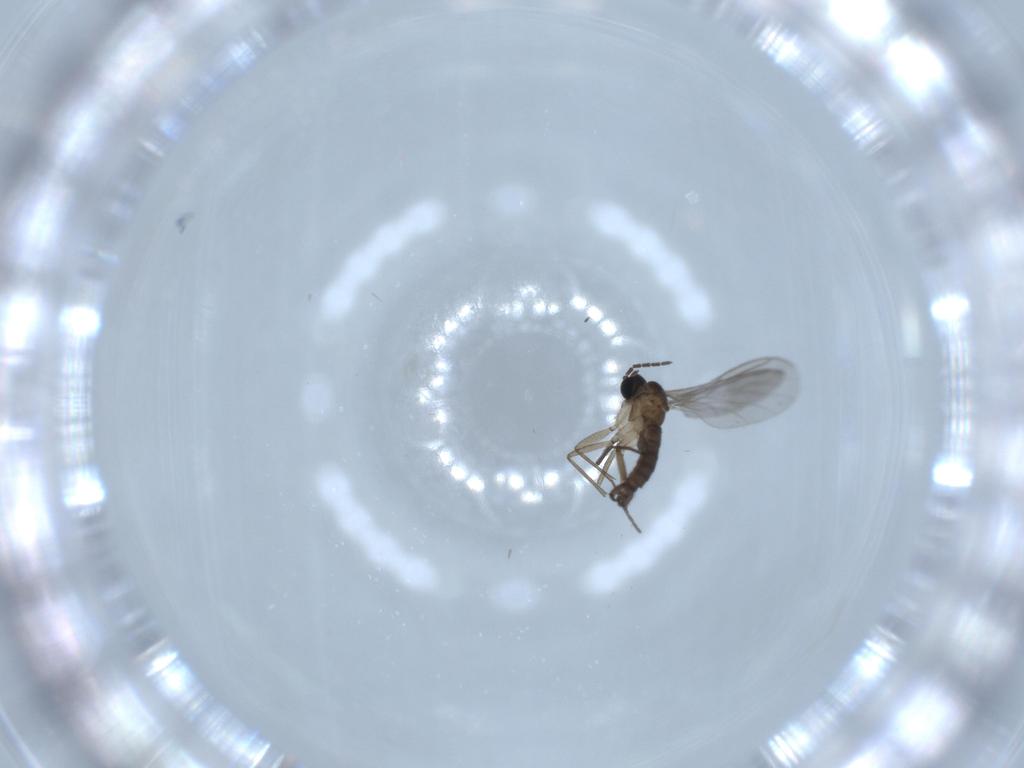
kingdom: Animalia
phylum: Arthropoda
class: Insecta
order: Diptera
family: Sciaridae
